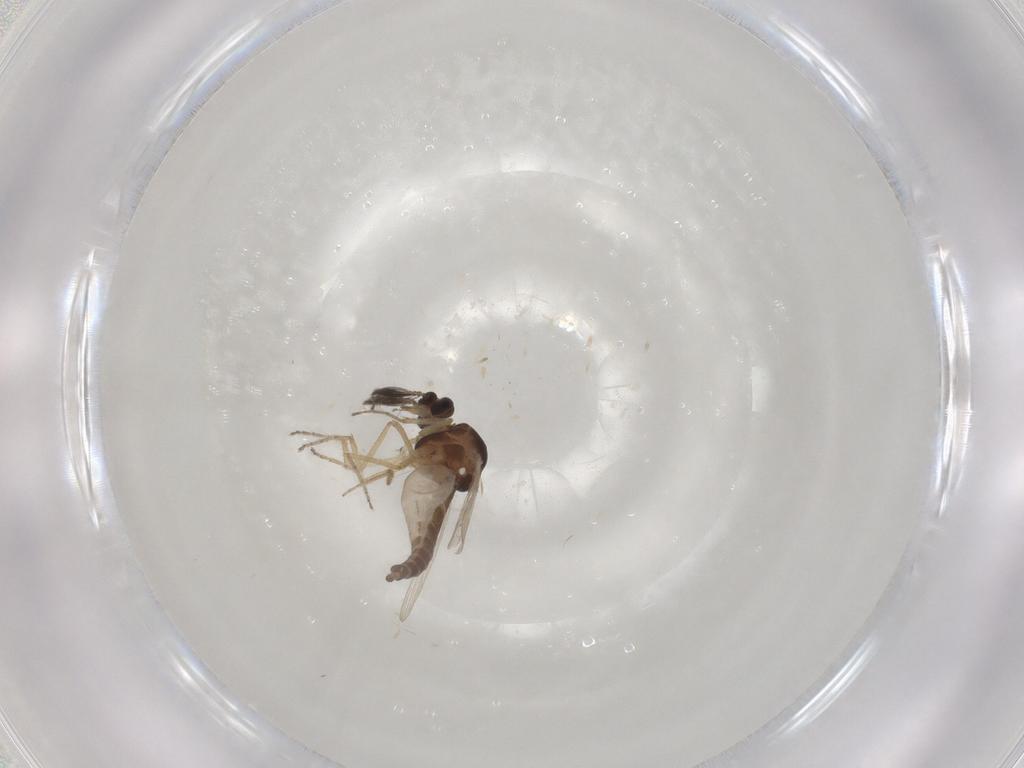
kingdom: Animalia
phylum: Arthropoda
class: Insecta
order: Diptera
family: Ceratopogonidae
